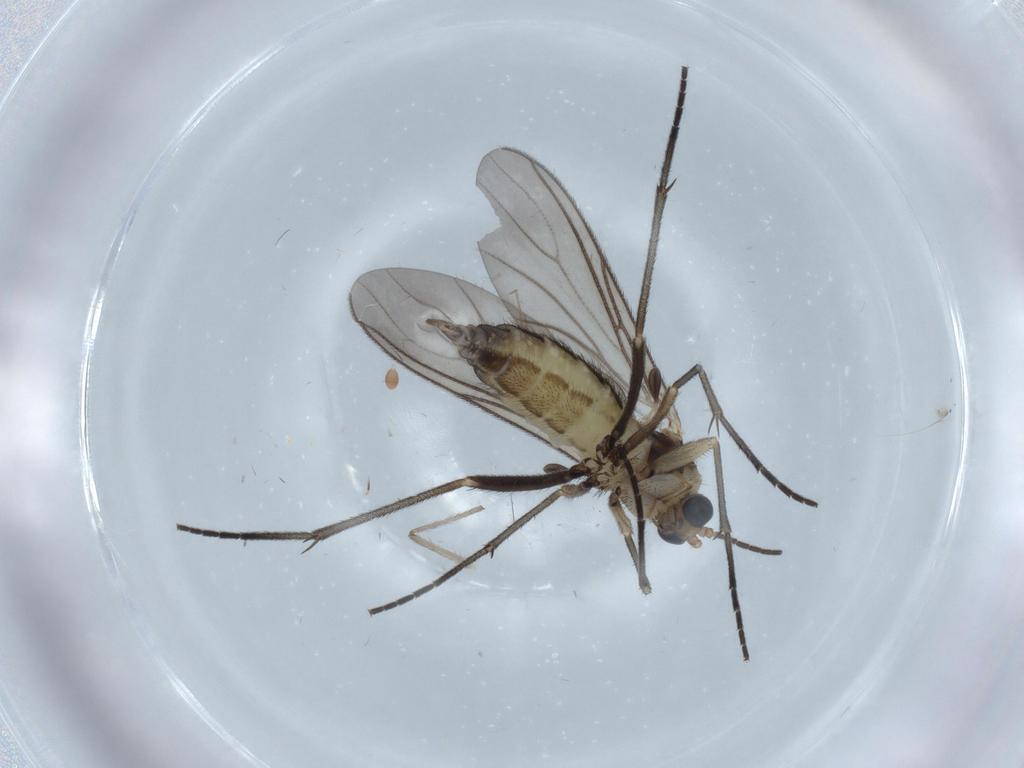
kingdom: Animalia
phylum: Arthropoda
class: Insecta
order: Diptera
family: Sciaridae
